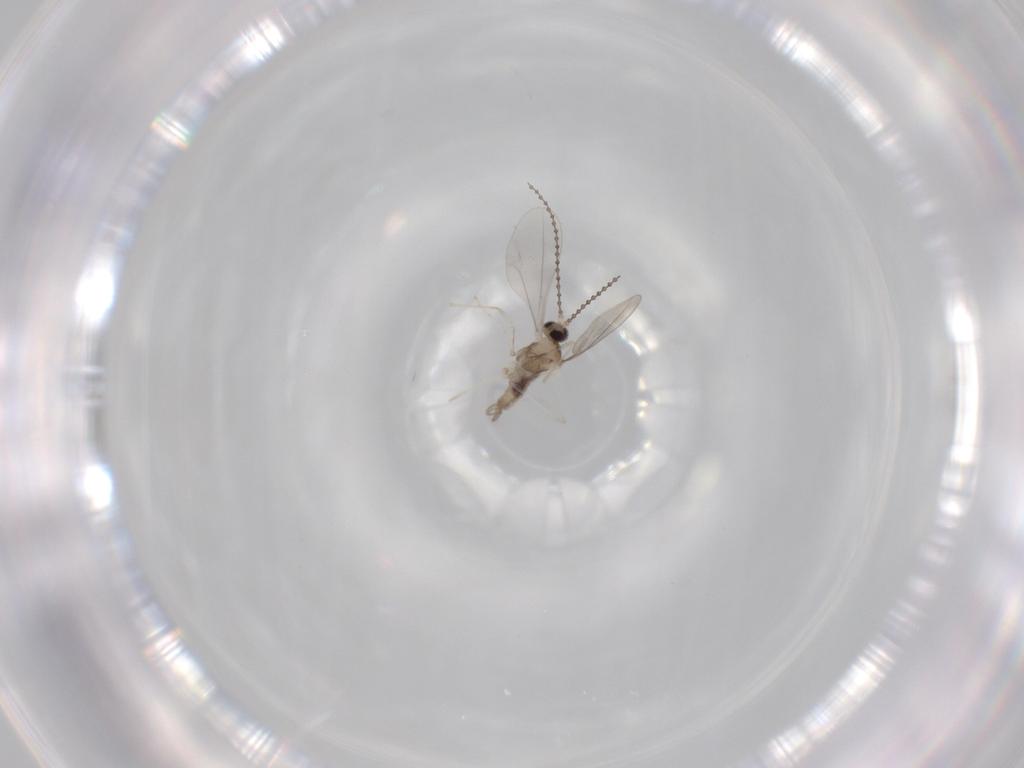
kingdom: Animalia
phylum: Arthropoda
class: Insecta
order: Diptera
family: Cecidomyiidae
